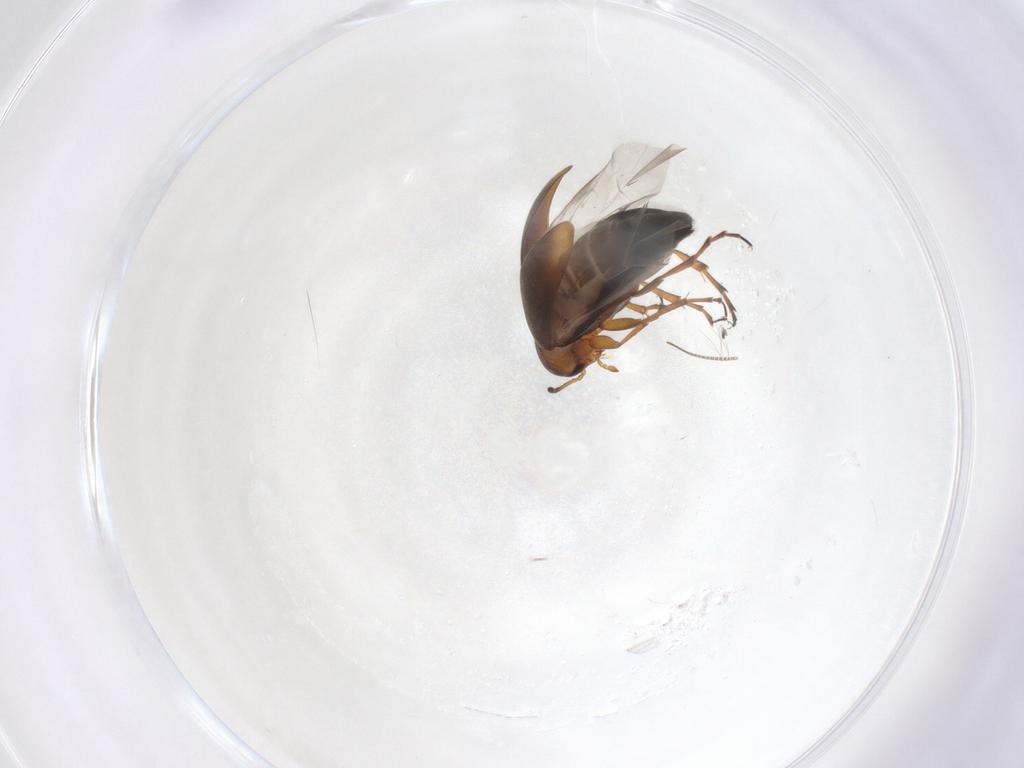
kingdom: Animalia
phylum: Arthropoda
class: Insecta
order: Coleoptera
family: Scraptiidae
